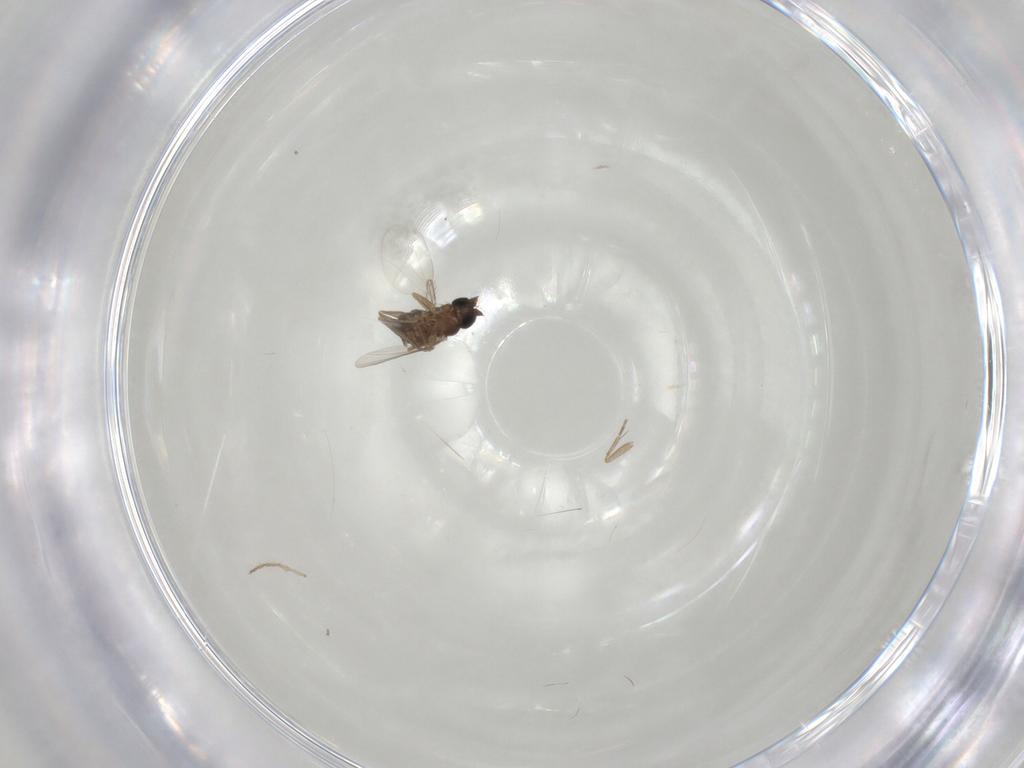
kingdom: Animalia
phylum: Arthropoda
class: Insecta
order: Diptera
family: Phoridae
